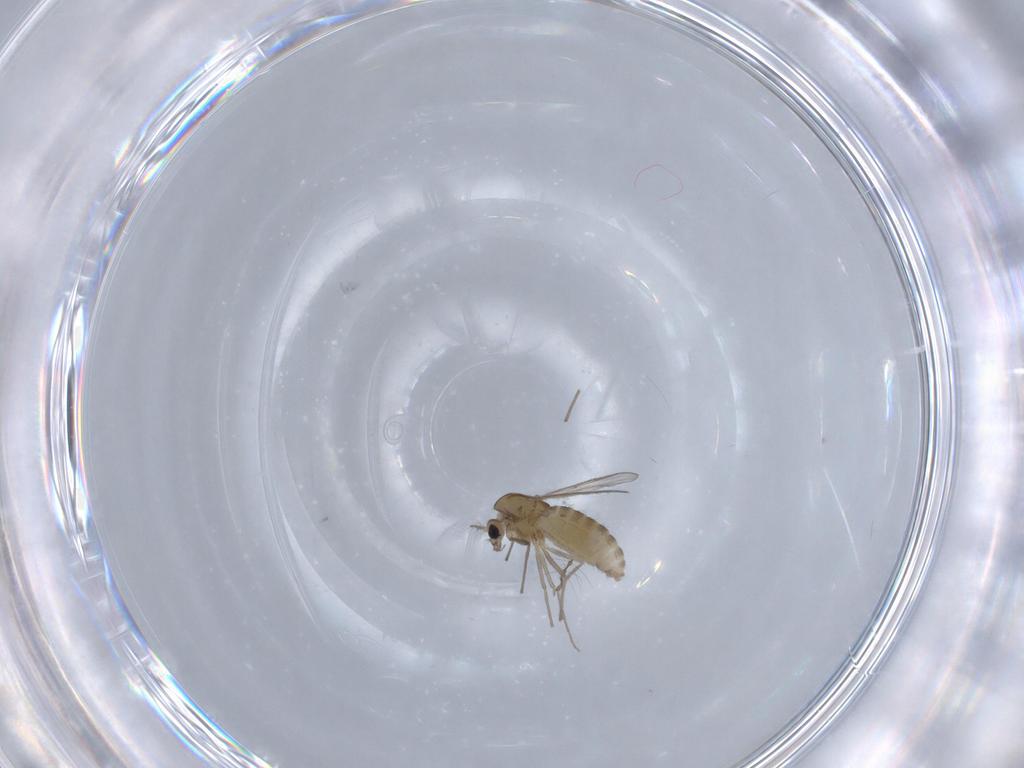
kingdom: Animalia
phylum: Arthropoda
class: Insecta
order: Diptera
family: Chironomidae
